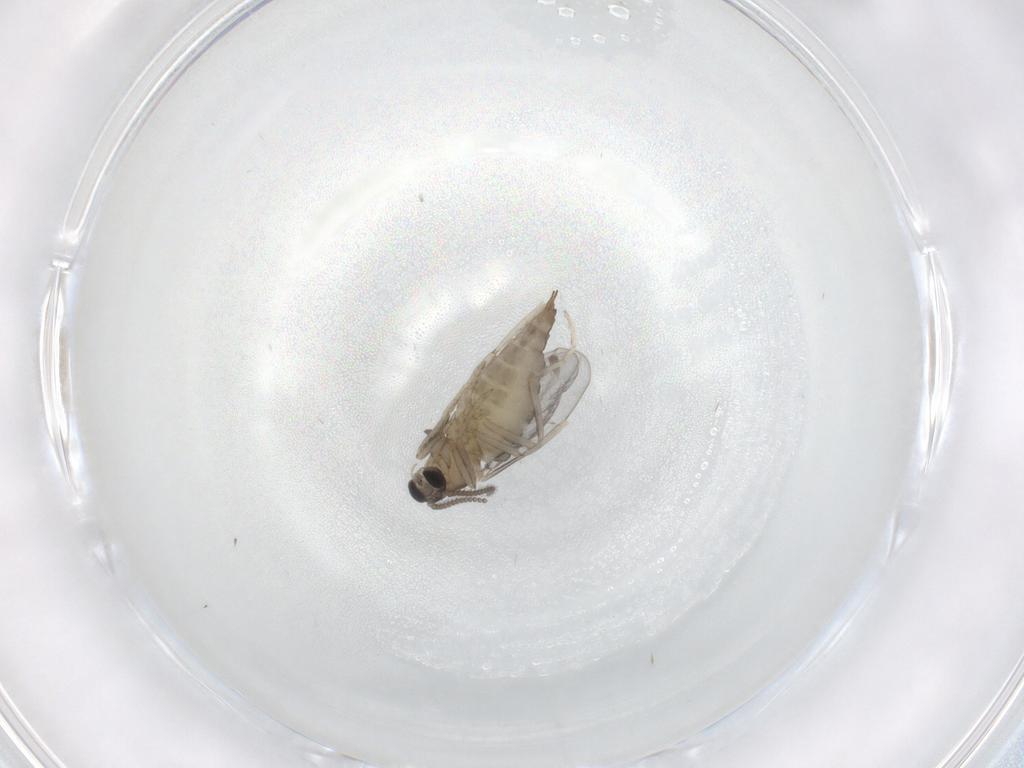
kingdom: Animalia
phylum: Arthropoda
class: Insecta
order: Diptera
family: Cecidomyiidae
